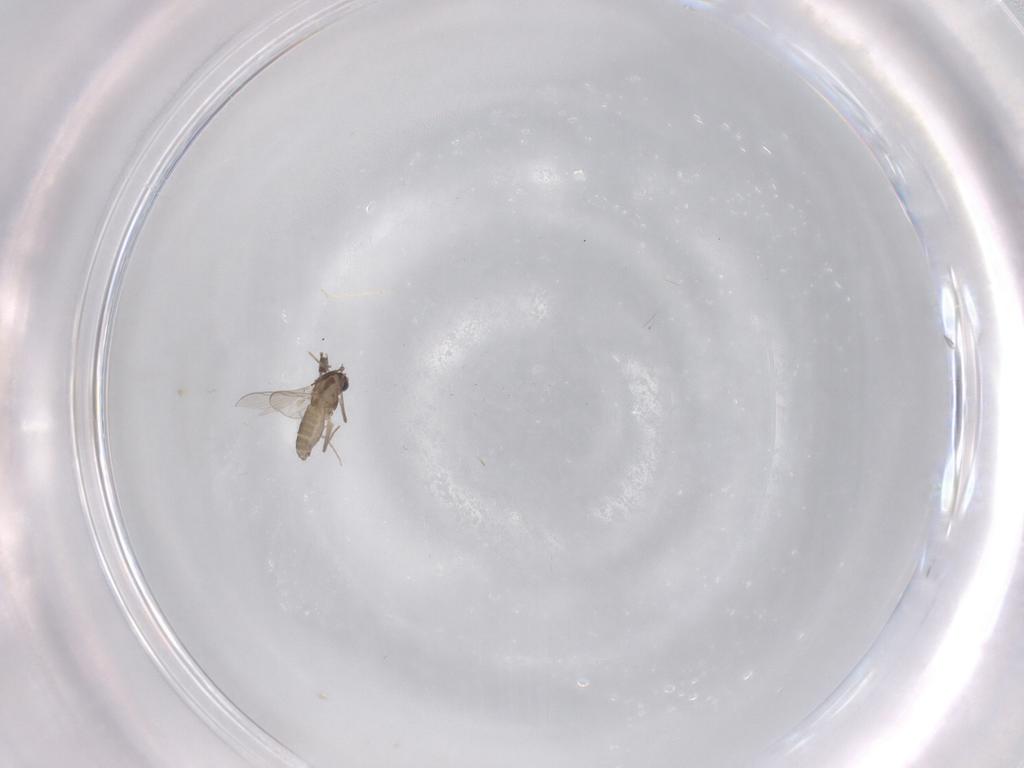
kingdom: Animalia
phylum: Arthropoda
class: Insecta
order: Diptera
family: Chironomidae
